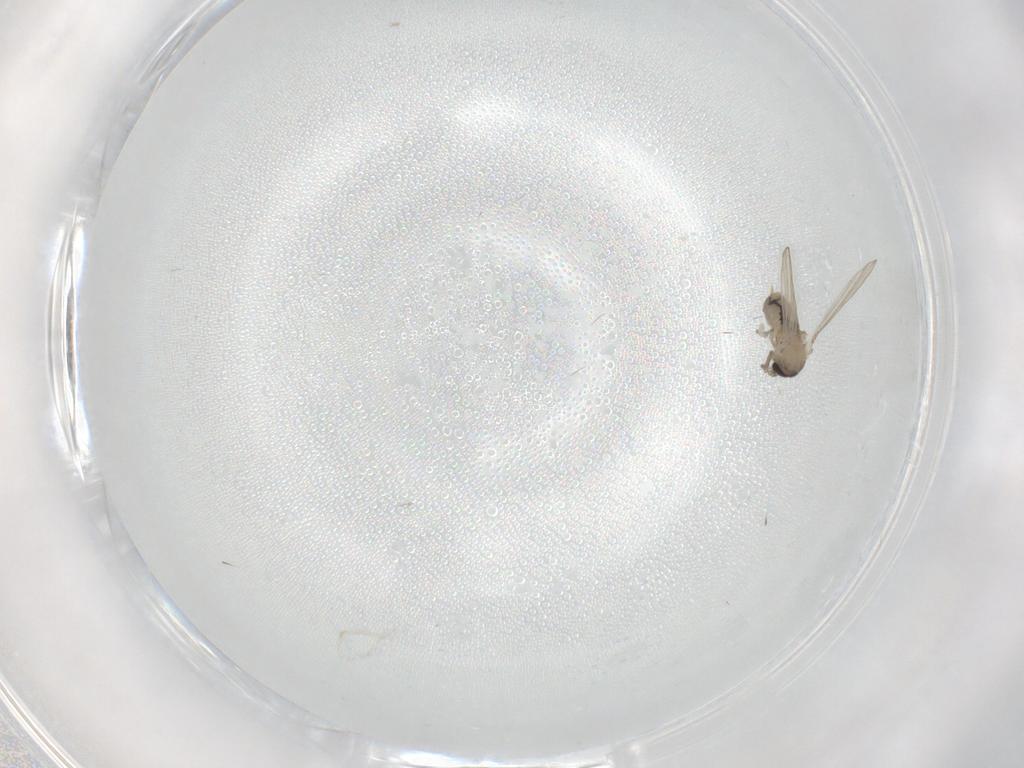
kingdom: Animalia
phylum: Arthropoda
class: Insecta
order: Diptera
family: Psychodidae
